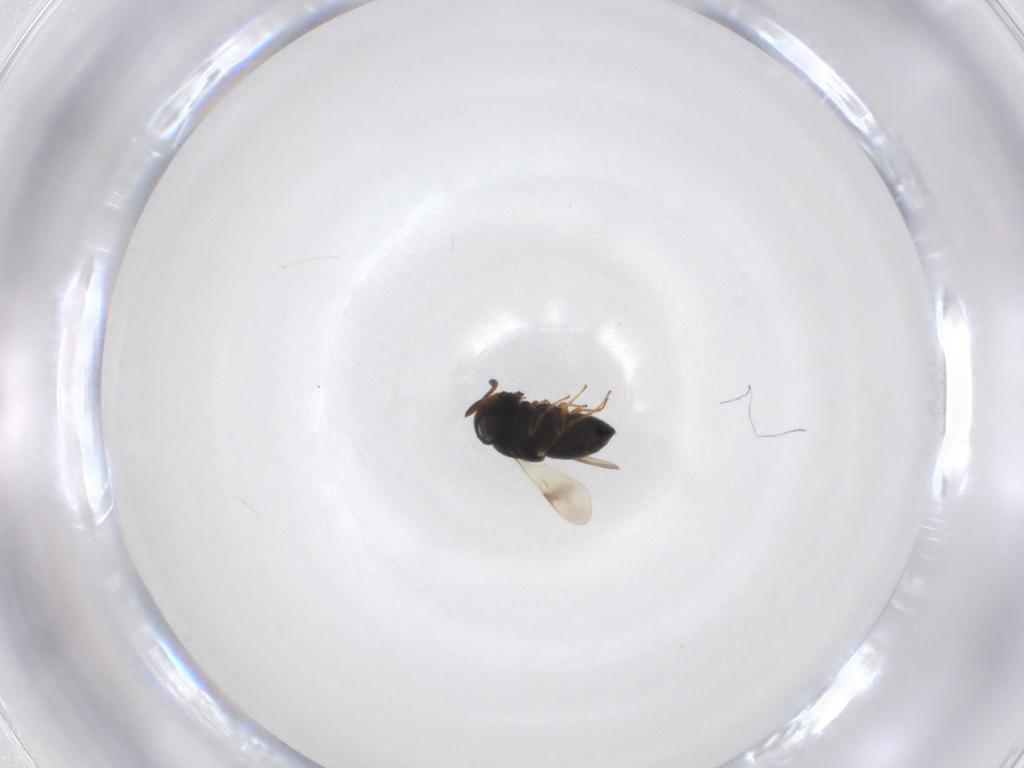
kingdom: Animalia
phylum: Arthropoda
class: Insecta
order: Hymenoptera
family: Scelionidae
